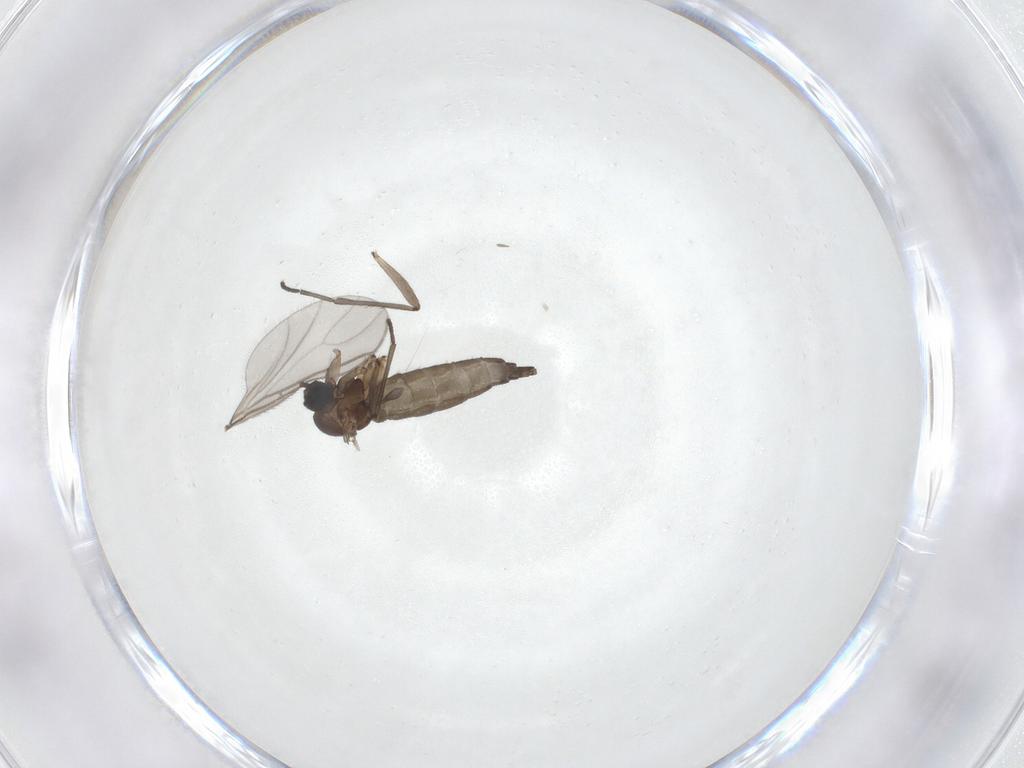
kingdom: Animalia
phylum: Arthropoda
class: Insecta
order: Diptera
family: Sciaridae
